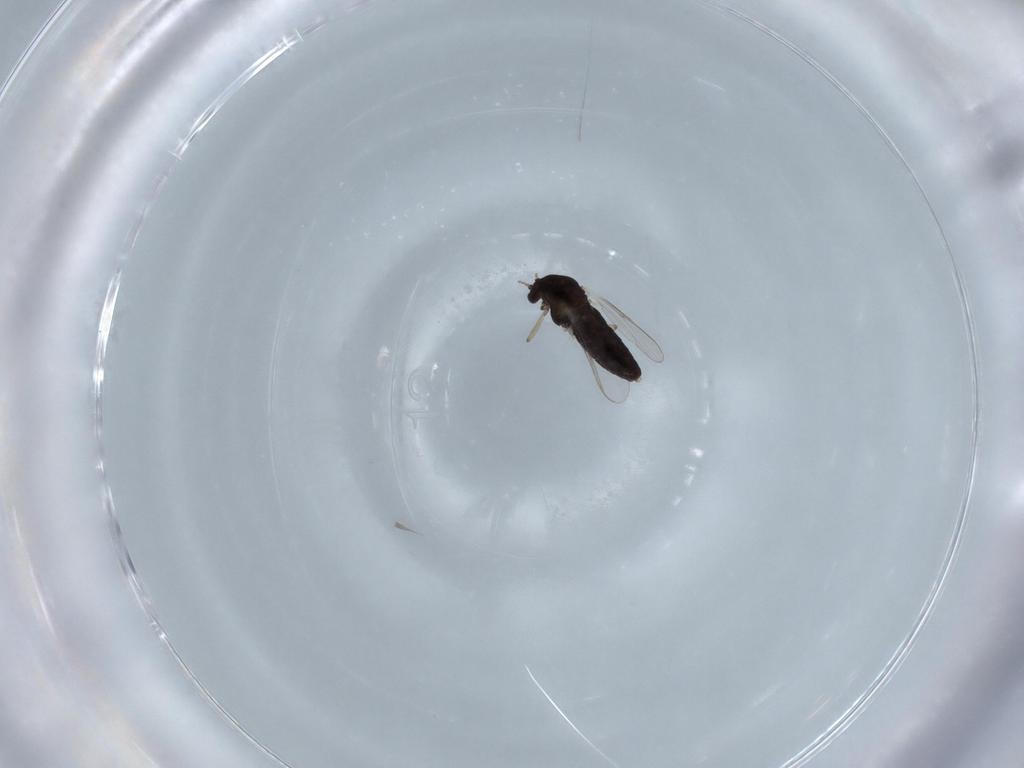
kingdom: Animalia
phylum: Arthropoda
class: Insecta
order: Diptera
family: Chironomidae
